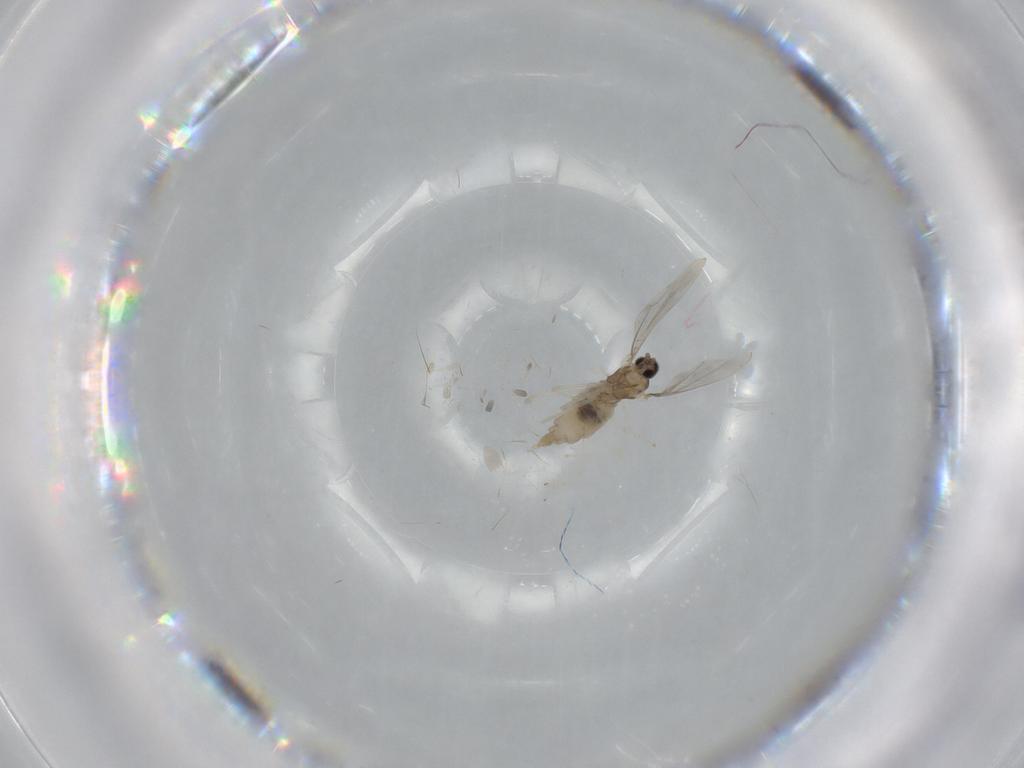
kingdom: Animalia
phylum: Arthropoda
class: Insecta
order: Diptera
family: Cecidomyiidae
